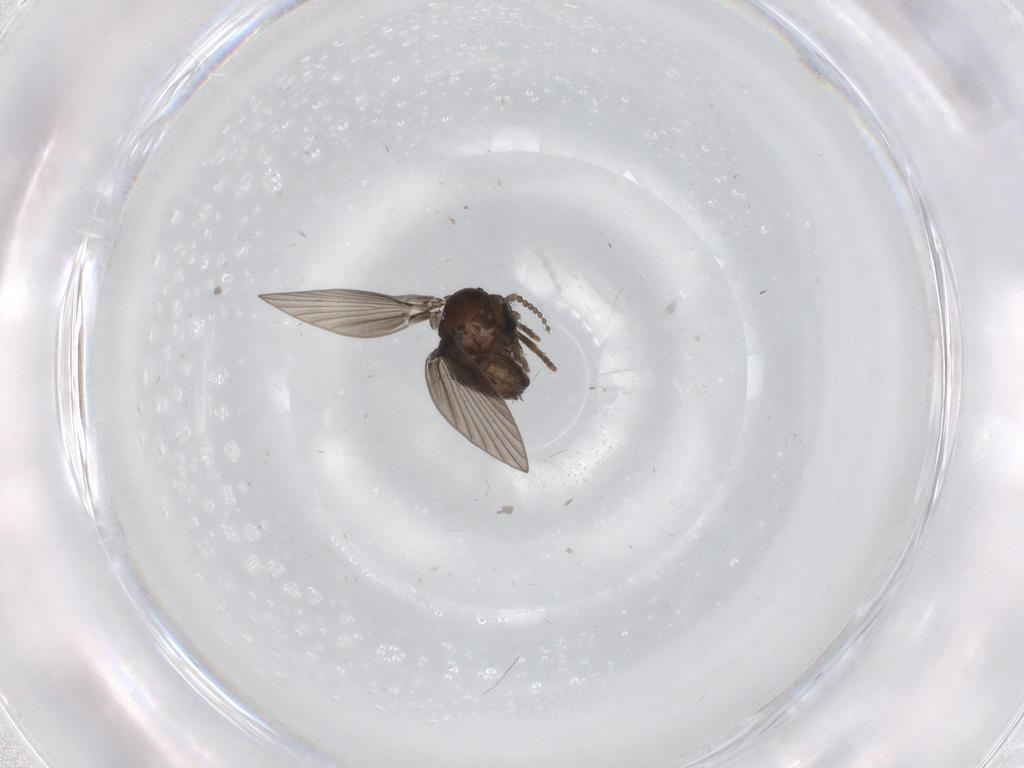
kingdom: Animalia
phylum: Arthropoda
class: Insecta
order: Diptera
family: Psychodidae
